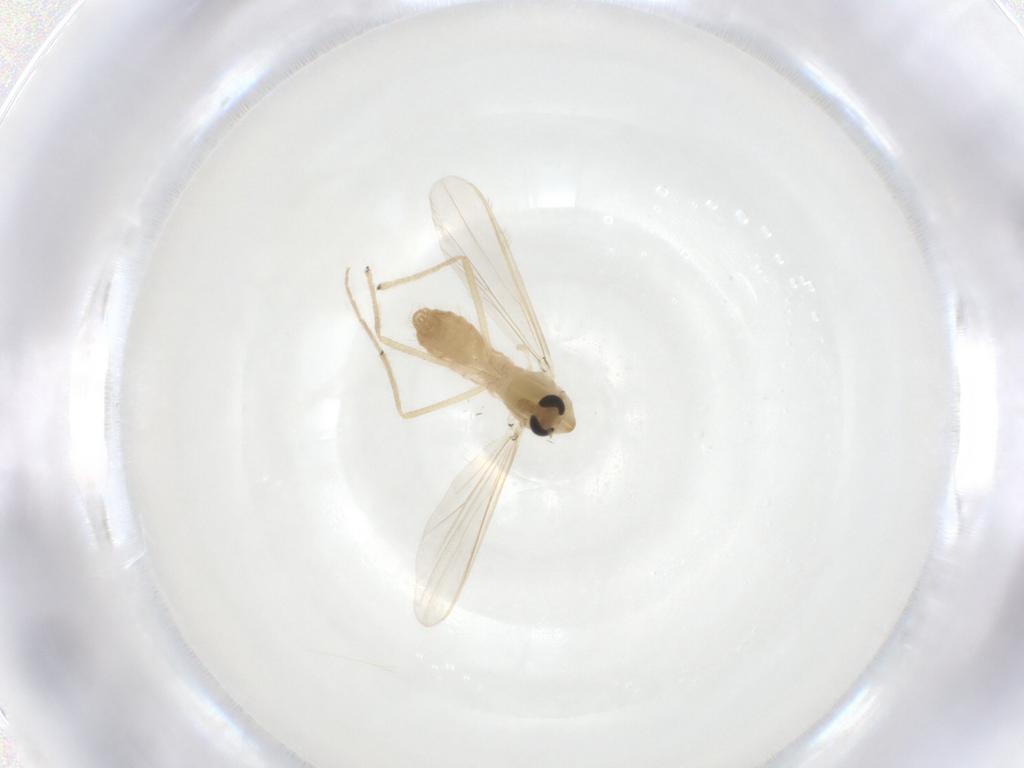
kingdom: Animalia
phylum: Arthropoda
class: Insecta
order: Diptera
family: Chironomidae
